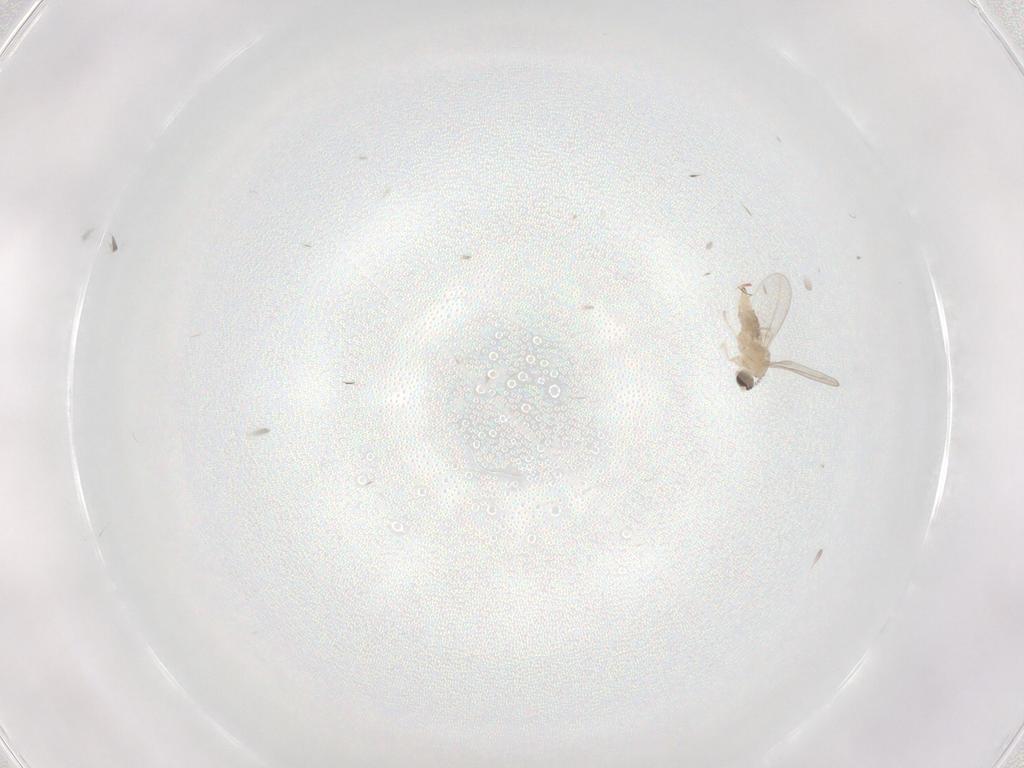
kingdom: Animalia
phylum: Arthropoda
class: Insecta
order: Diptera
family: Cecidomyiidae
